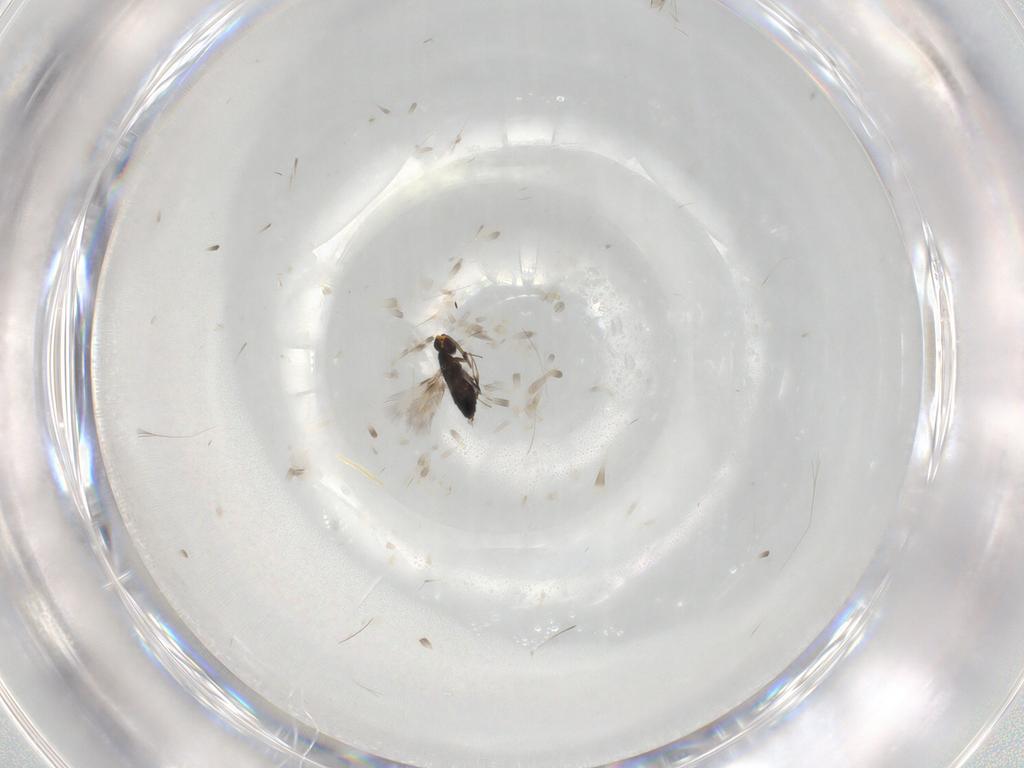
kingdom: Animalia
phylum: Arthropoda
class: Insecta
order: Hymenoptera
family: Signiphoridae
